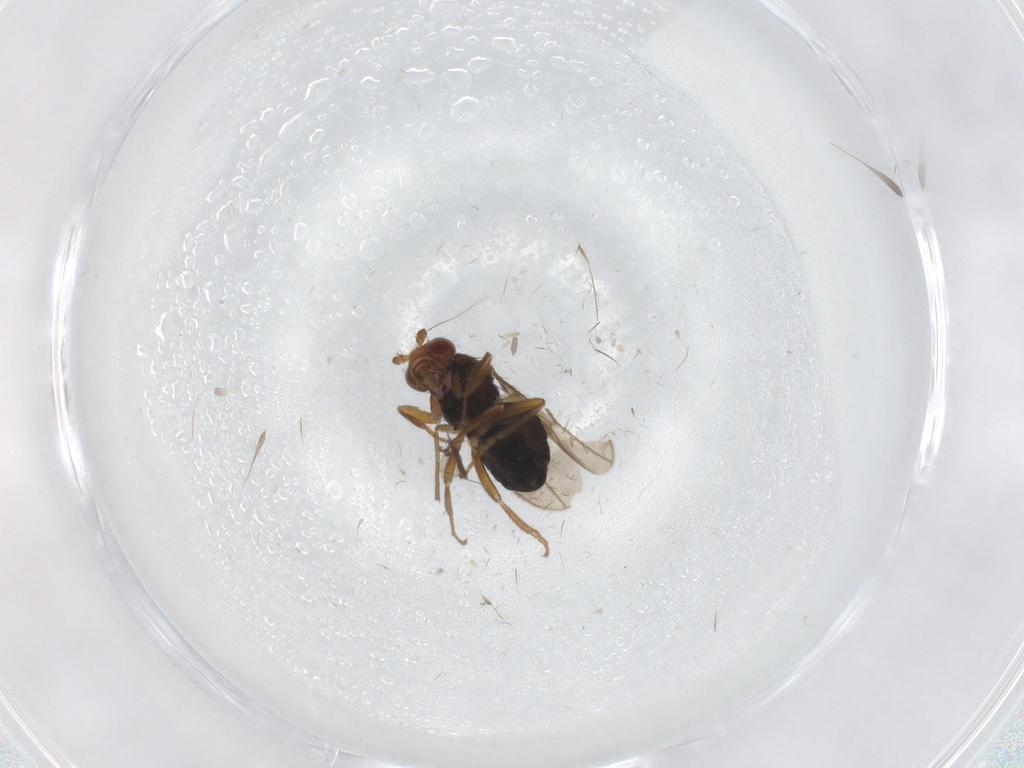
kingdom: Animalia
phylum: Arthropoda
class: Insecta
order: Diptera
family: Sphaeroceridae
